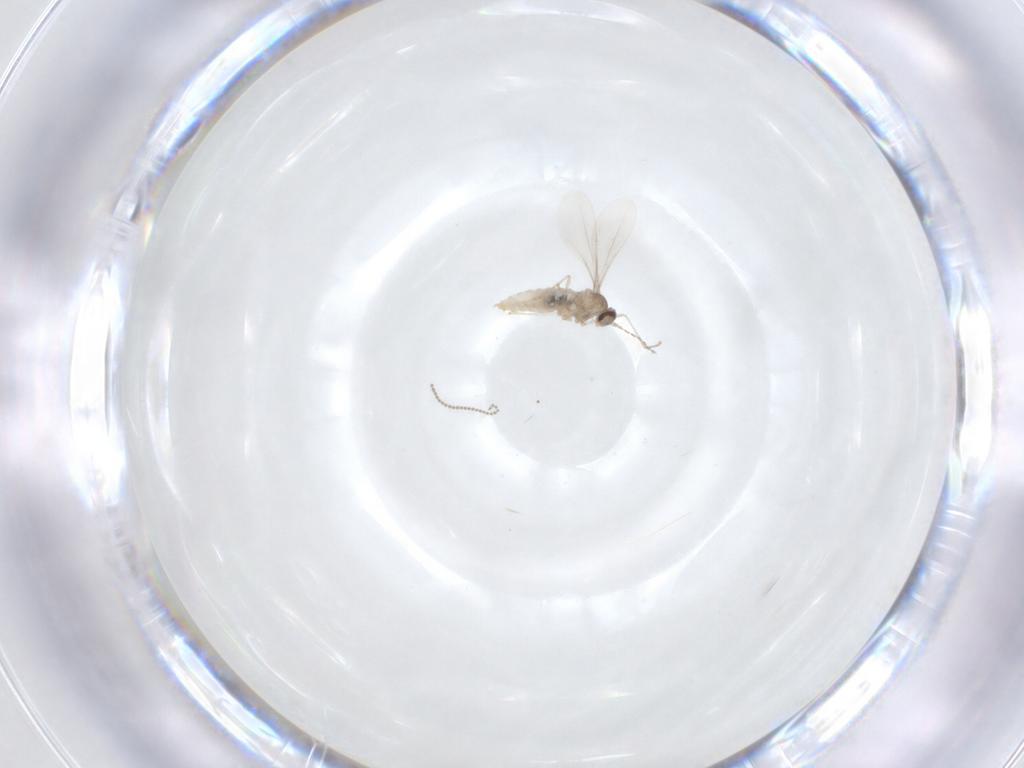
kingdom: Animalia
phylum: Arthropoda
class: Insecta
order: Diptera
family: Cecidomyiidae
